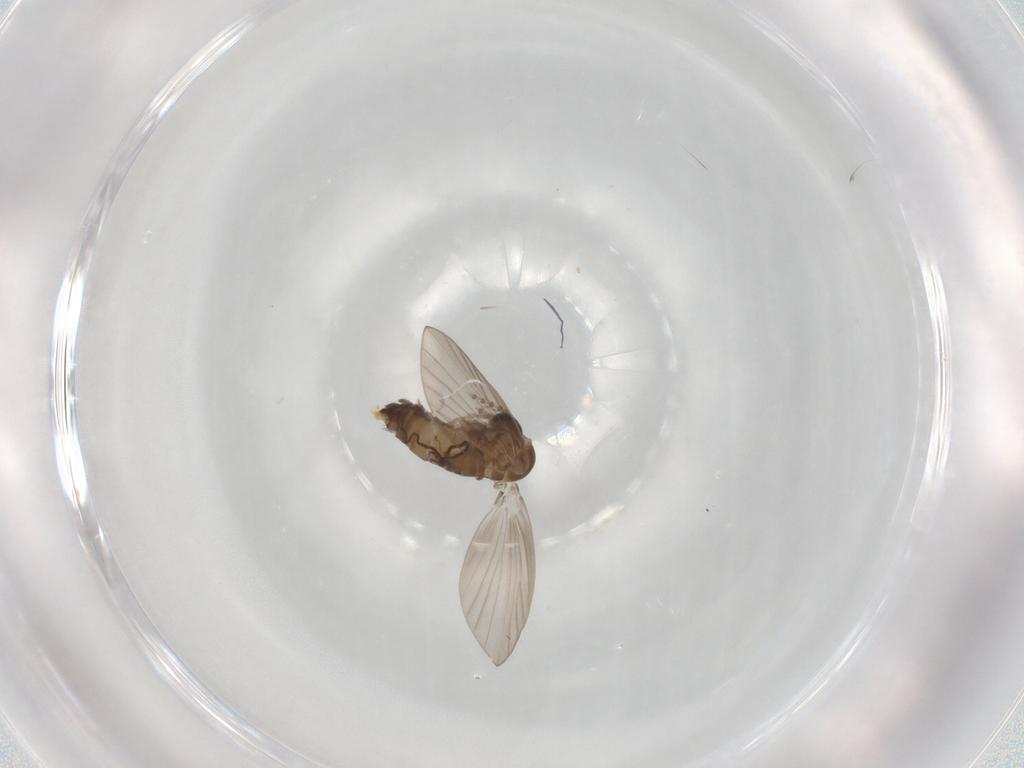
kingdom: Animalia
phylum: Arthropoda
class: Insecta
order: Diptera
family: Psychodidae
